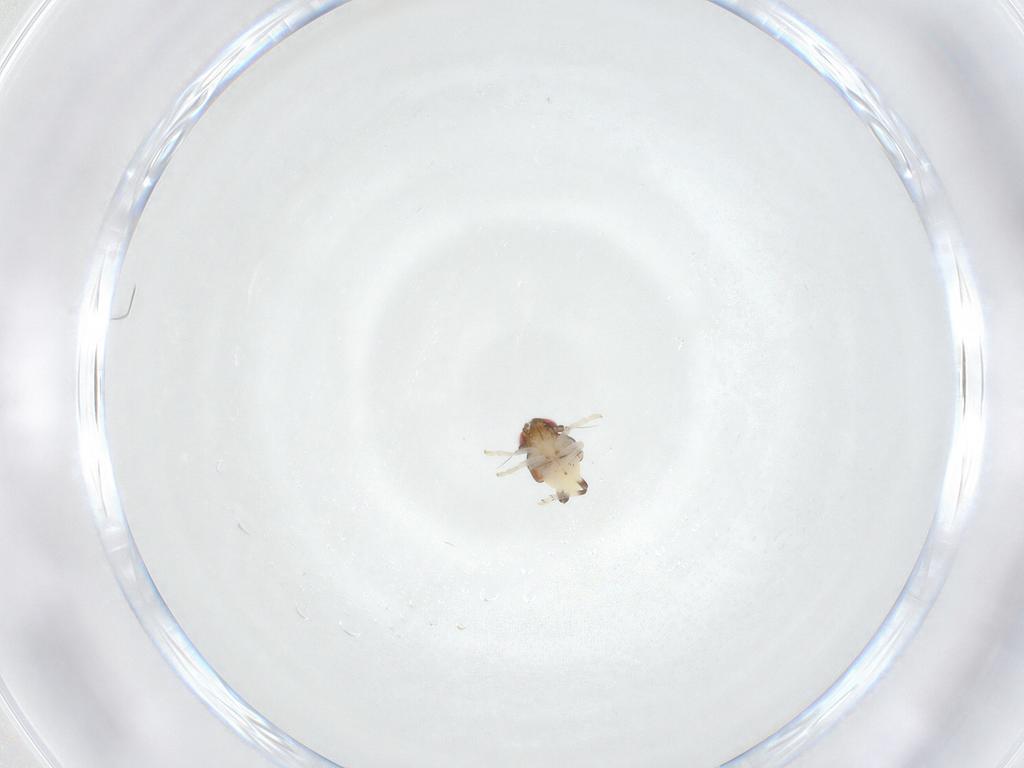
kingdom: Animalia
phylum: Arthropoda
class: Insecta
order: Hemiptera
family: Nogodinidae
